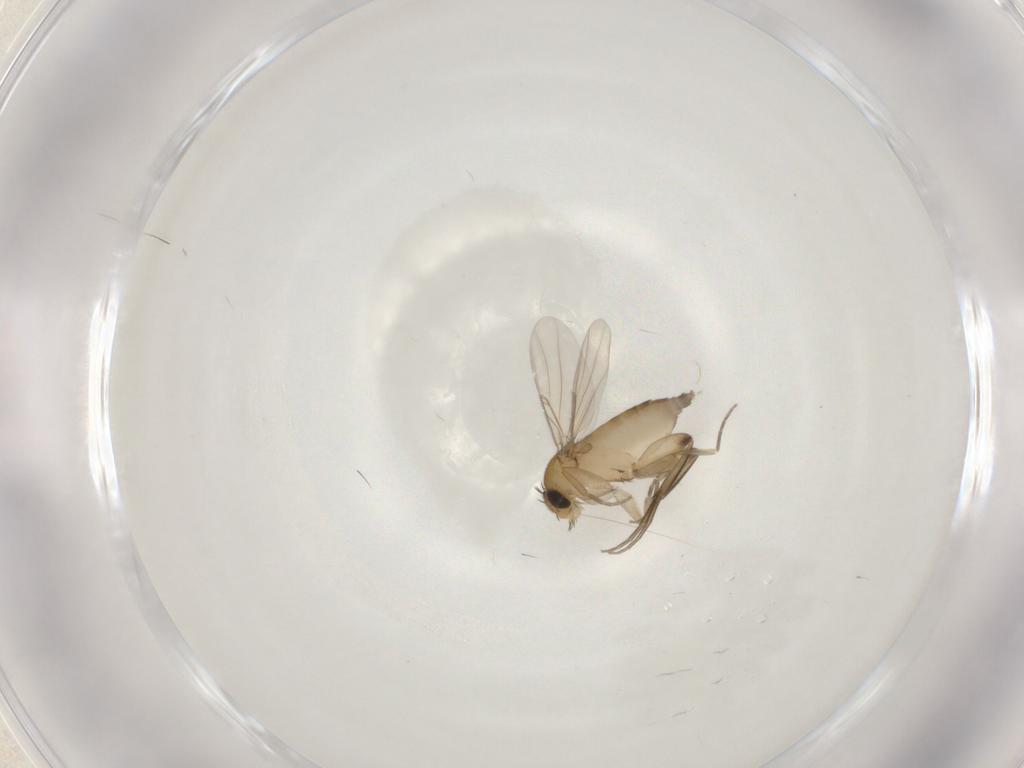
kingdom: Animalia
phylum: Arthropoda
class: Insecta
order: Diptera
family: Phoridae
